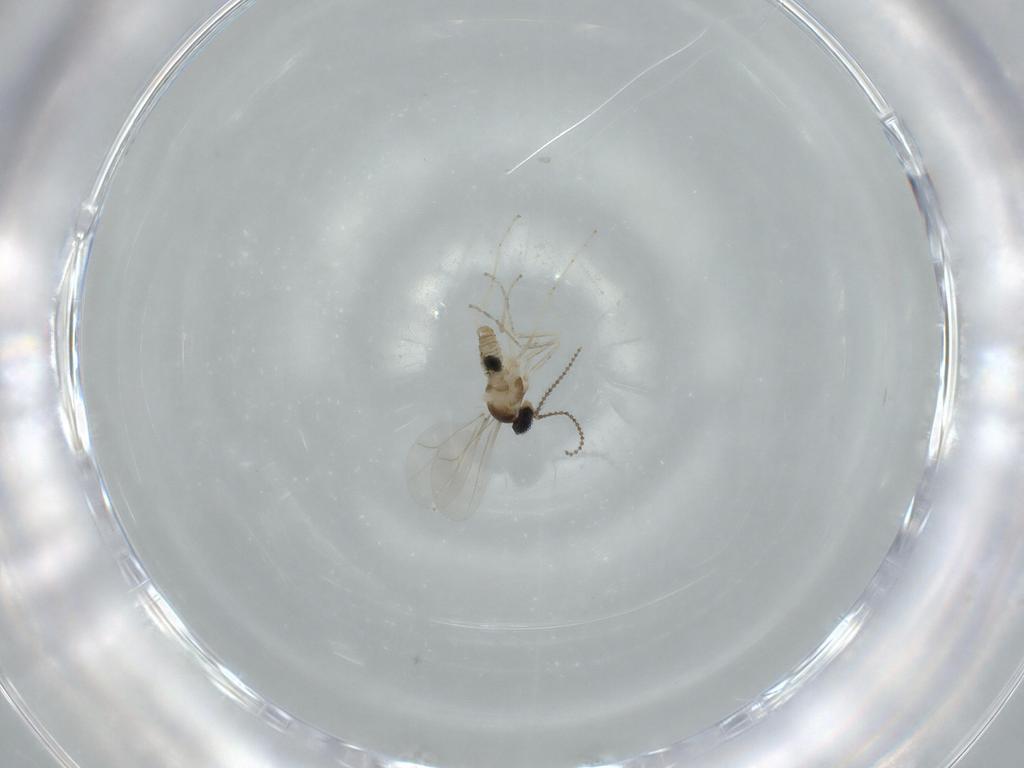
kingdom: Animalia
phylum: Arthropoda
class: Insecta
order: Diptera
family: Cecidomyiidae
